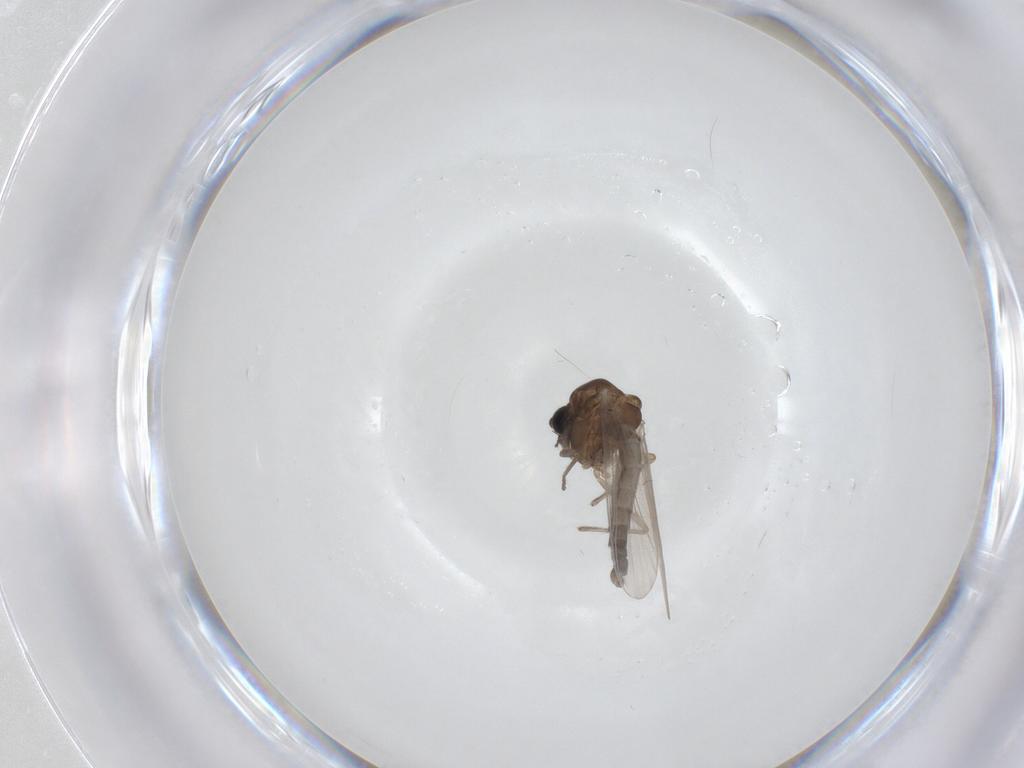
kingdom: Animalia
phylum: Arthropoda
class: Insecta
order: Diptera
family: Chironomidae
